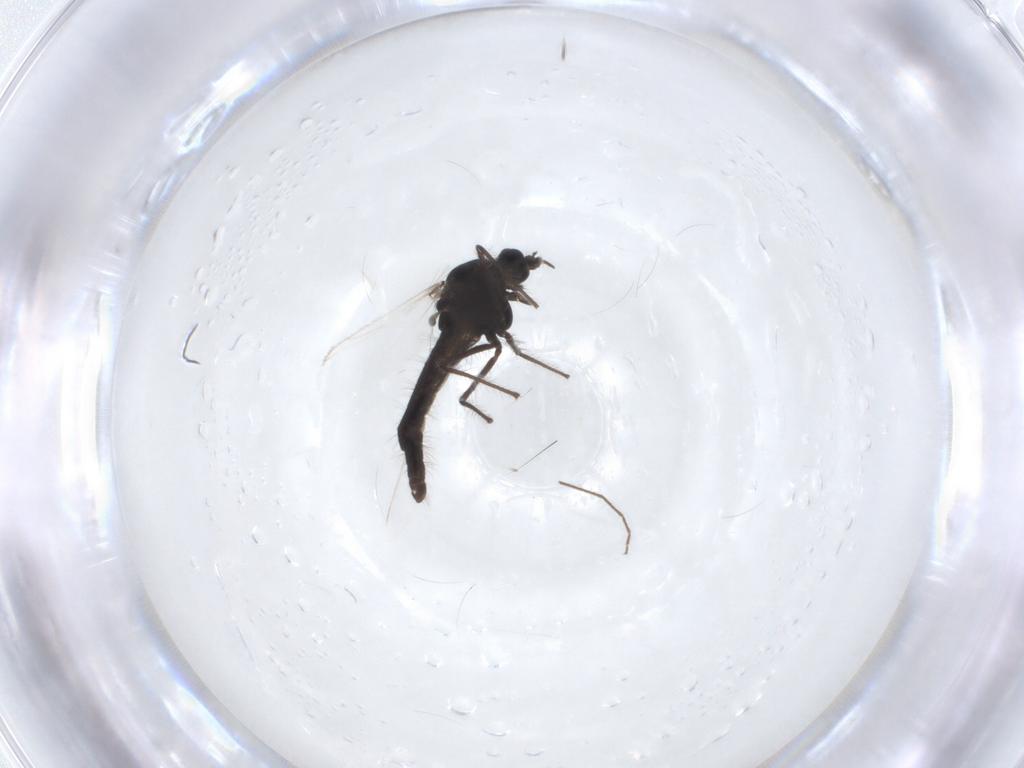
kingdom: Animalia
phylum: Arthropoda
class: Insecta
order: Diptera
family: Chironomidae
